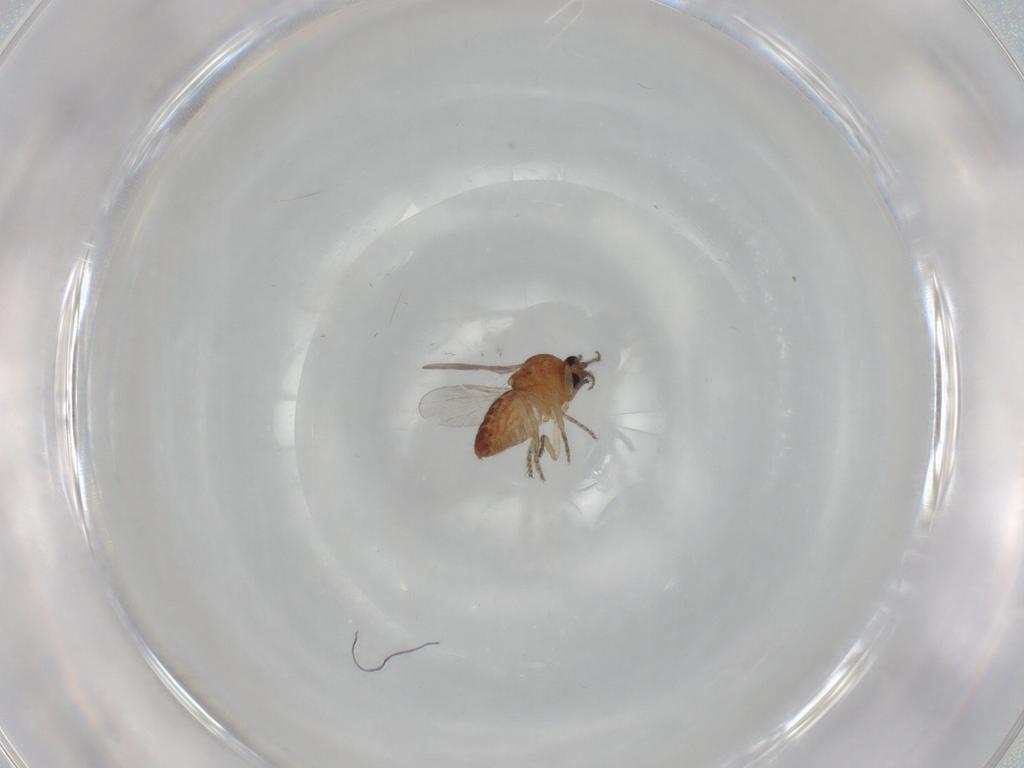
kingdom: Animalia
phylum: Arthropoda
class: Insecta
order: Diptera
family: Ceratopogonidae
